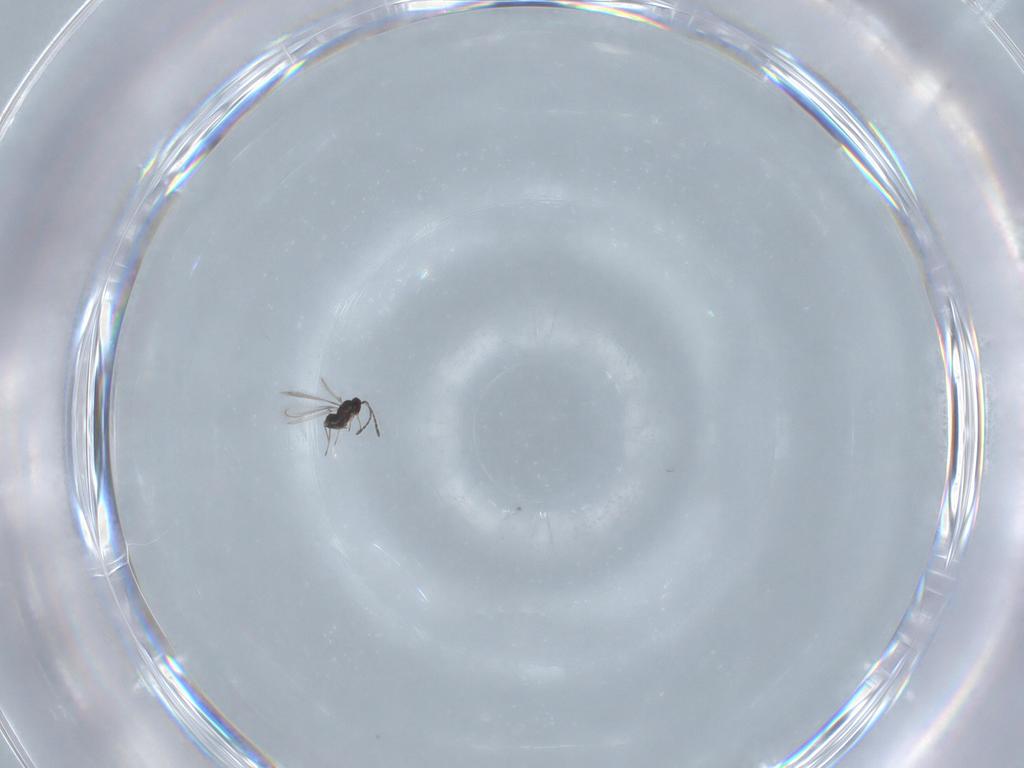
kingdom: Animalia
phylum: Arthropoda
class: Insecta
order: Hymenoptera
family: Mymaridae
